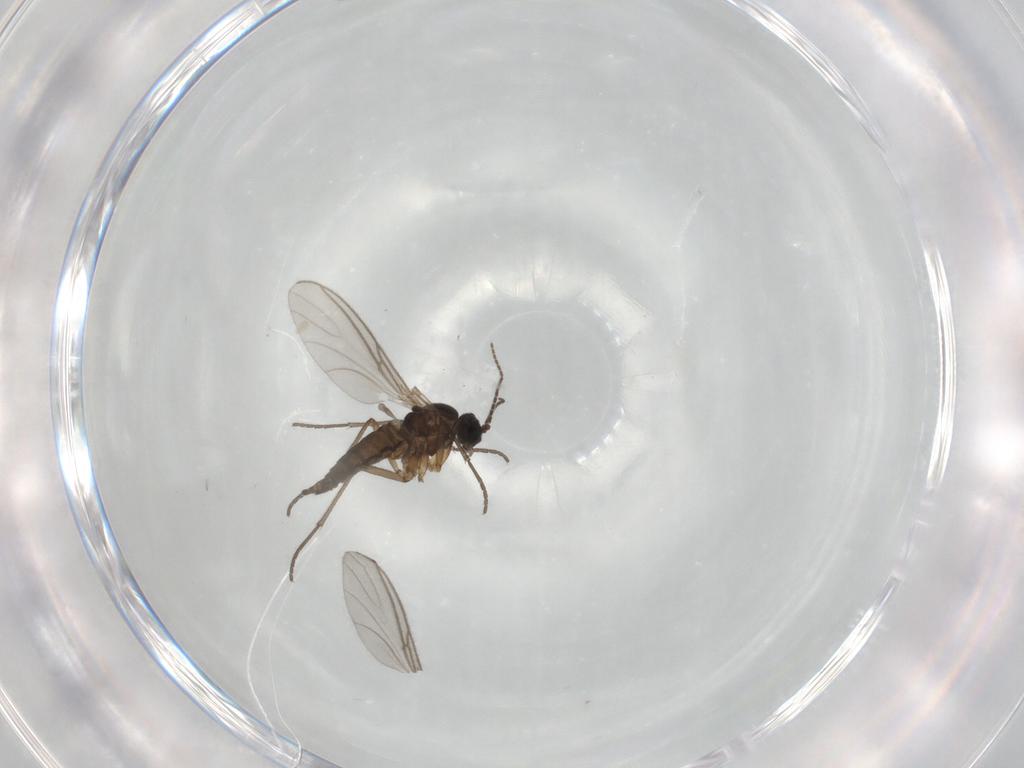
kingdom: Animalia
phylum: Arthropoda
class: Insecta
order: Diptera
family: Sciaridae
